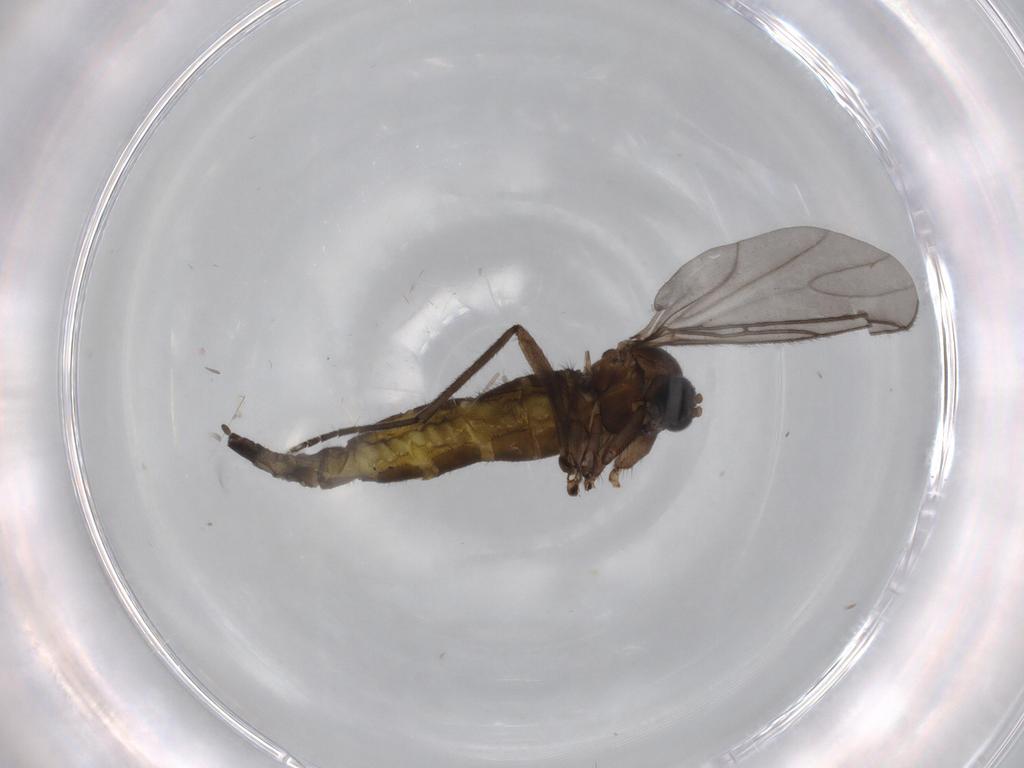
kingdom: Animalia
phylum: Arthropoda
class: Insecta
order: Diptera
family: Sciaridae
